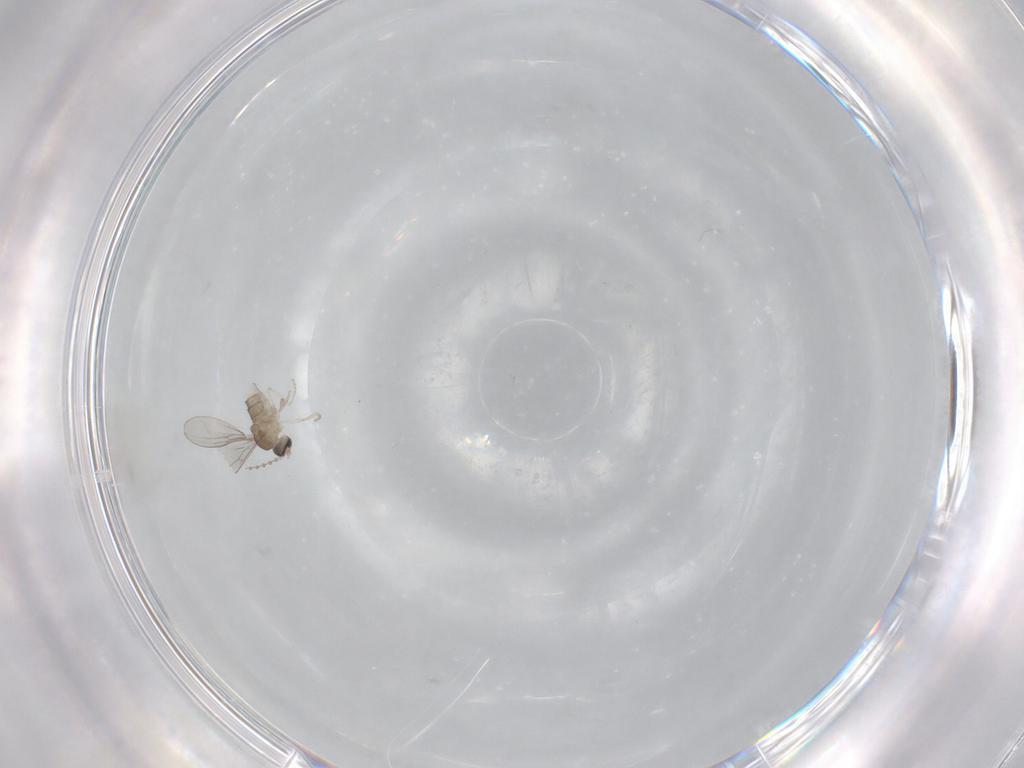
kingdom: Animalia
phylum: Arthropoda
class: Insecta
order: Diptera
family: Cecidomyiidae
